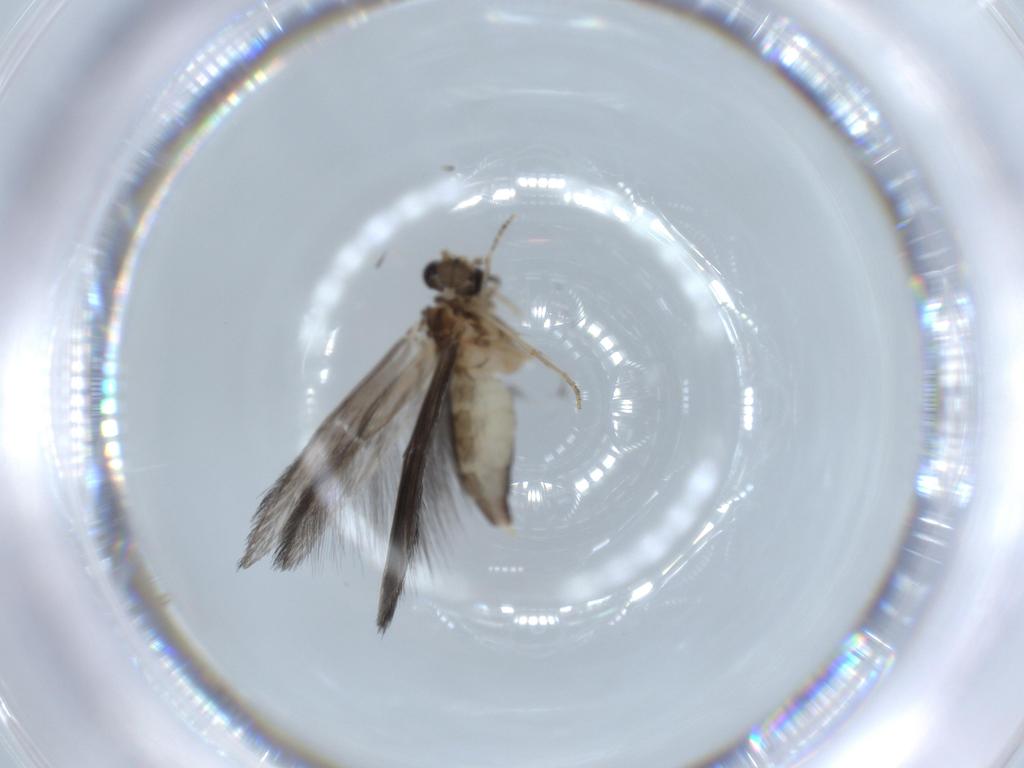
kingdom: Animalia
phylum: Arthropoda
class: Insecta
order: Trichoptera
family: Hydroptilidae
